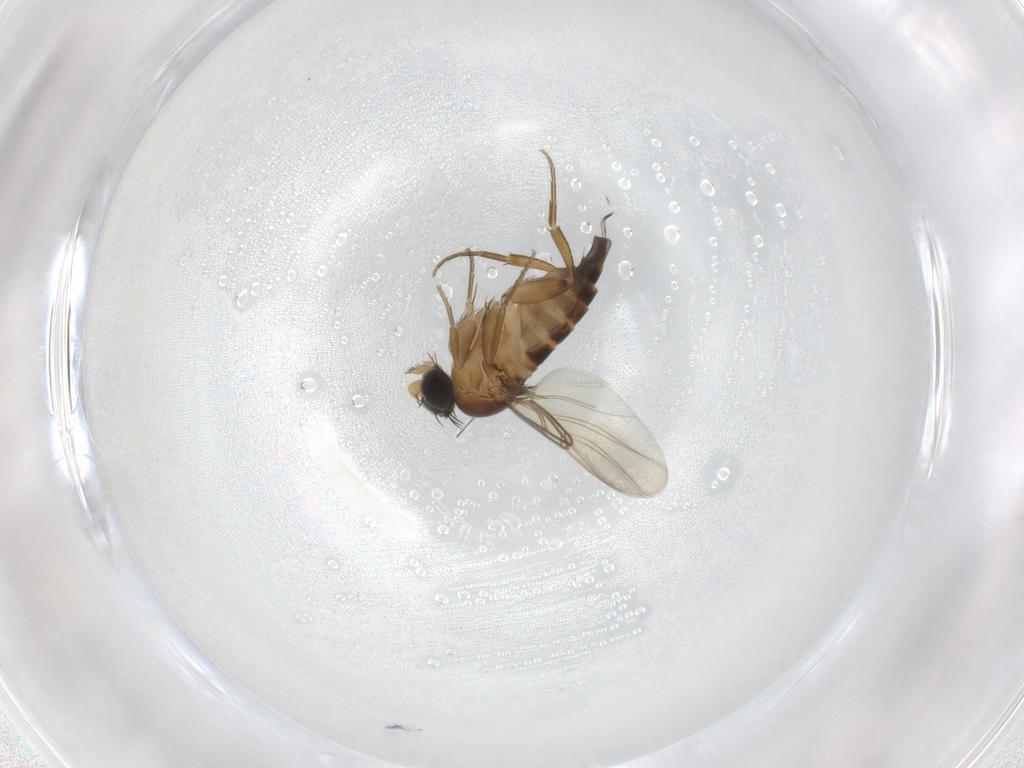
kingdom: Animalia
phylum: Arthropoda
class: Insecta
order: Diptera
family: Phoridae
